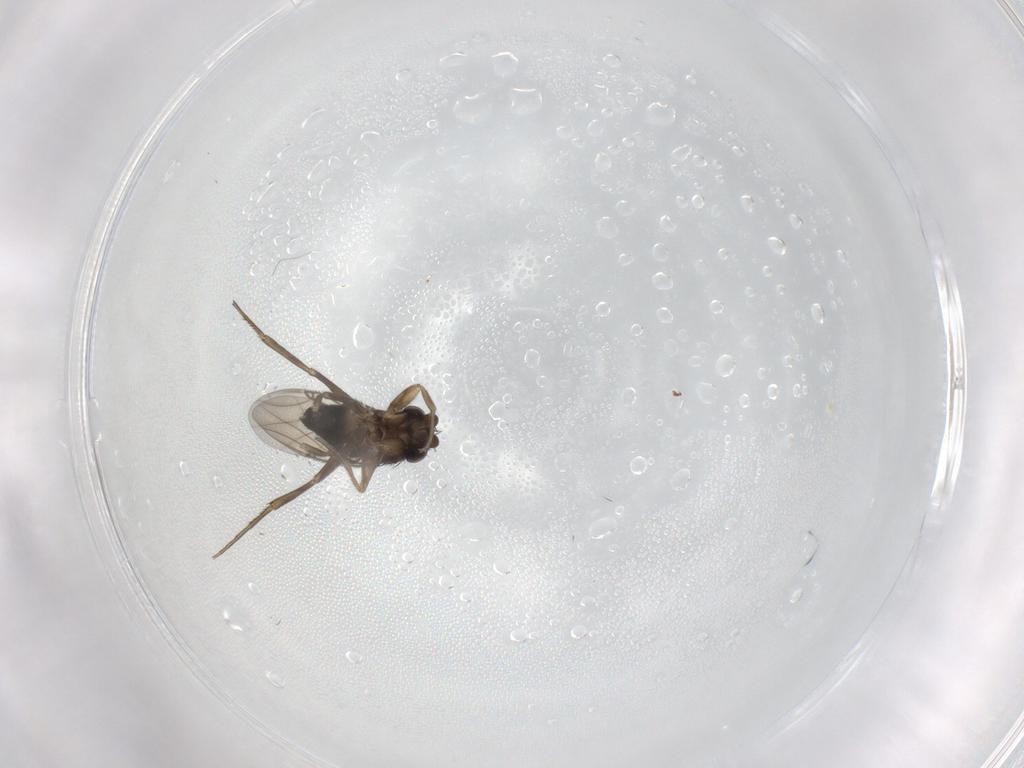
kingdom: Animalia
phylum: Arthropoda
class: Insecta
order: Diptera
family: Phoridae
